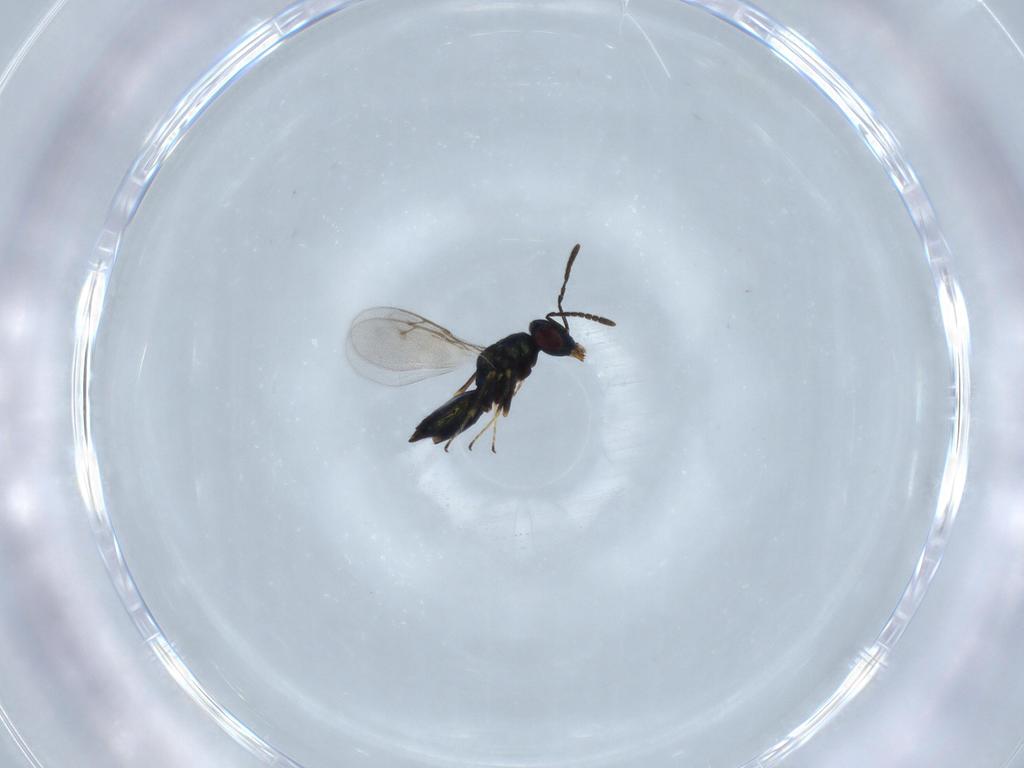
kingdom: Animalia
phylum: Arthropoda
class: Insecta
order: Hymenoptera
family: Pteromalidae
